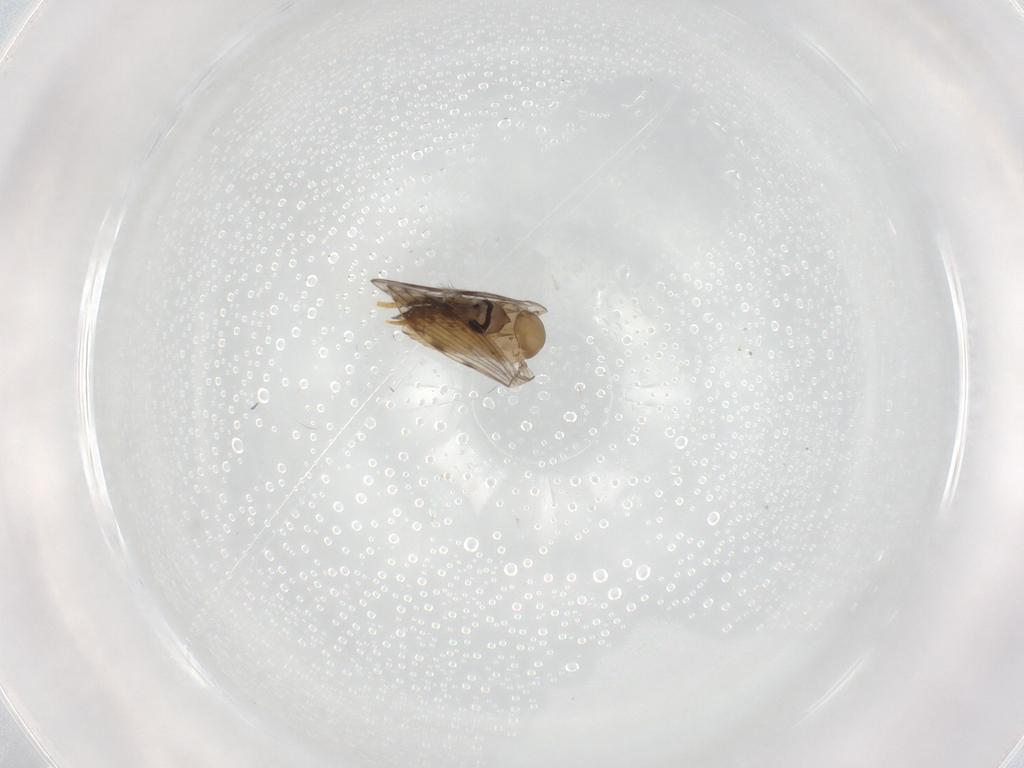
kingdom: Animalia
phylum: Arthropoda
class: Insecta
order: Diptera
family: Psychodidae
